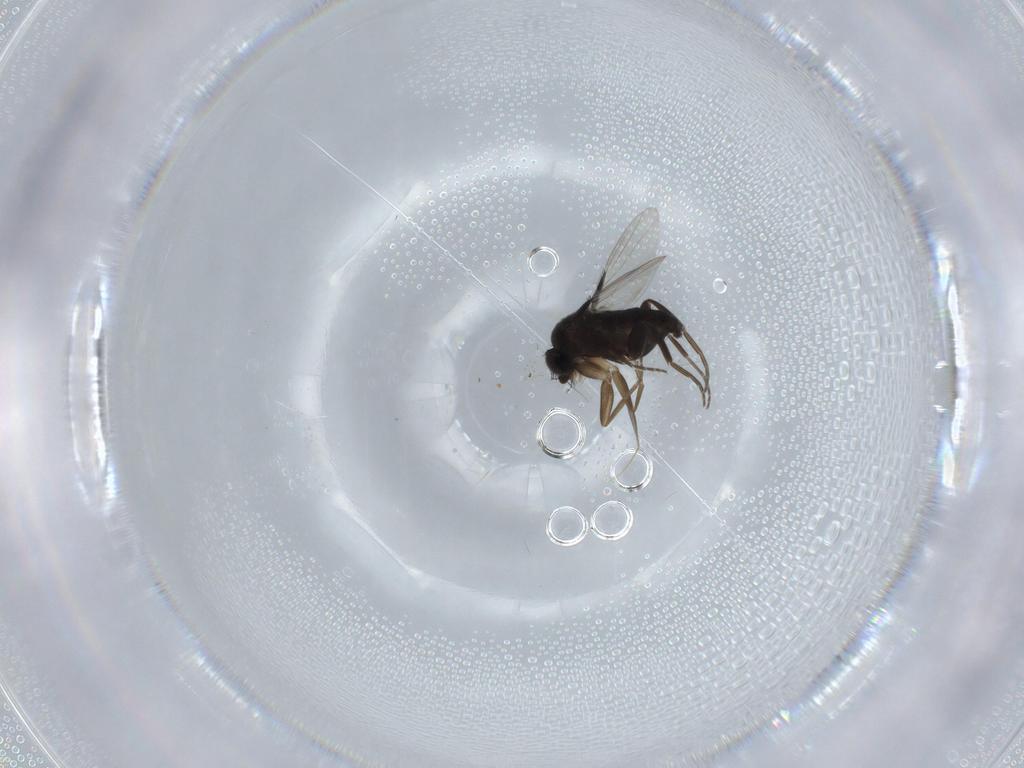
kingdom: Animalia
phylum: Arthropoda
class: Insecta
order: Diptera
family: Phoridae
